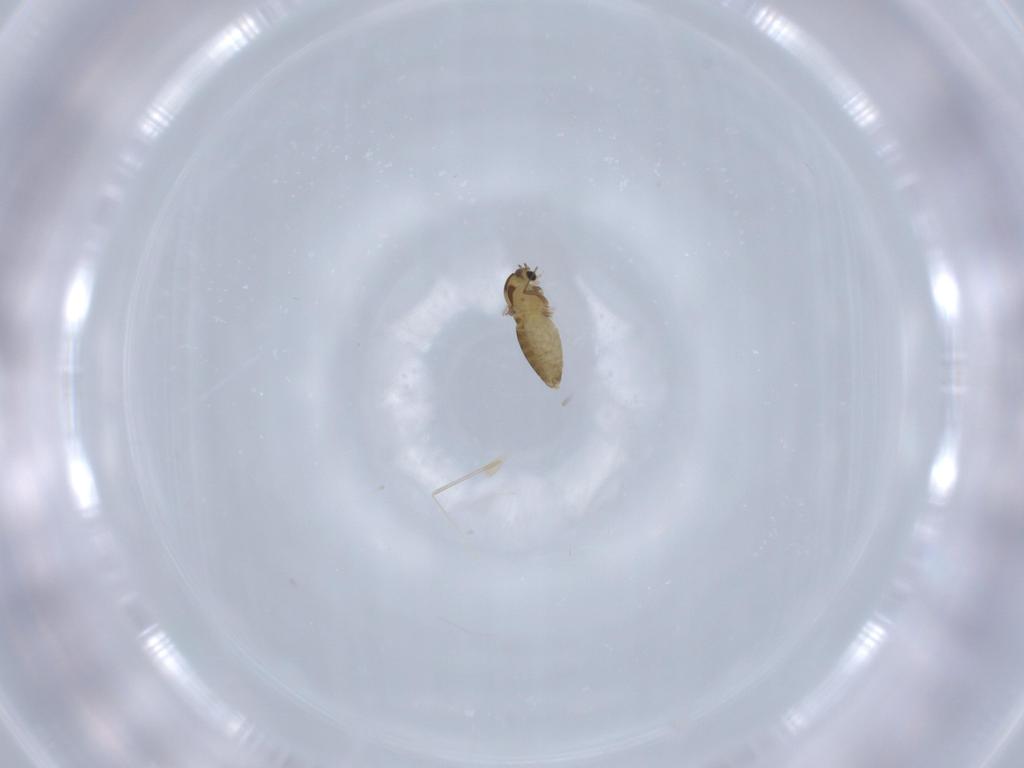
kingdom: Animalia
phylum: Arthropoda
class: Insecta
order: Diptera
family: Chironomidae
